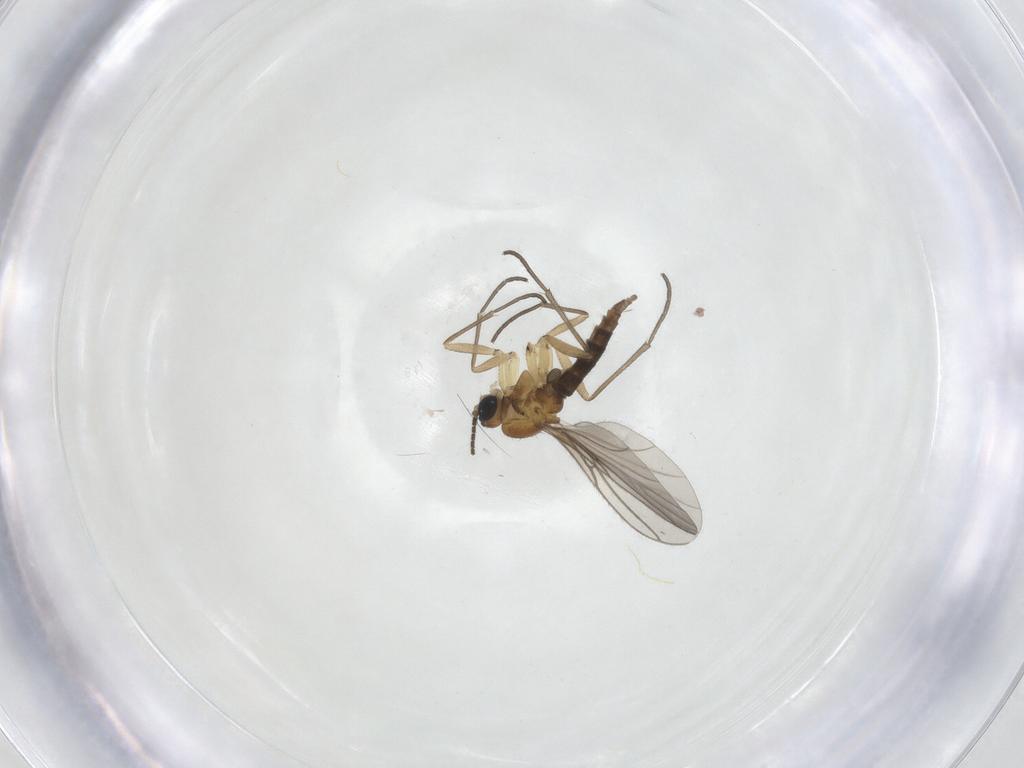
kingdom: Animalia
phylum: Arthropoda
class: Insecta
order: Diptera
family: Sciaridae
